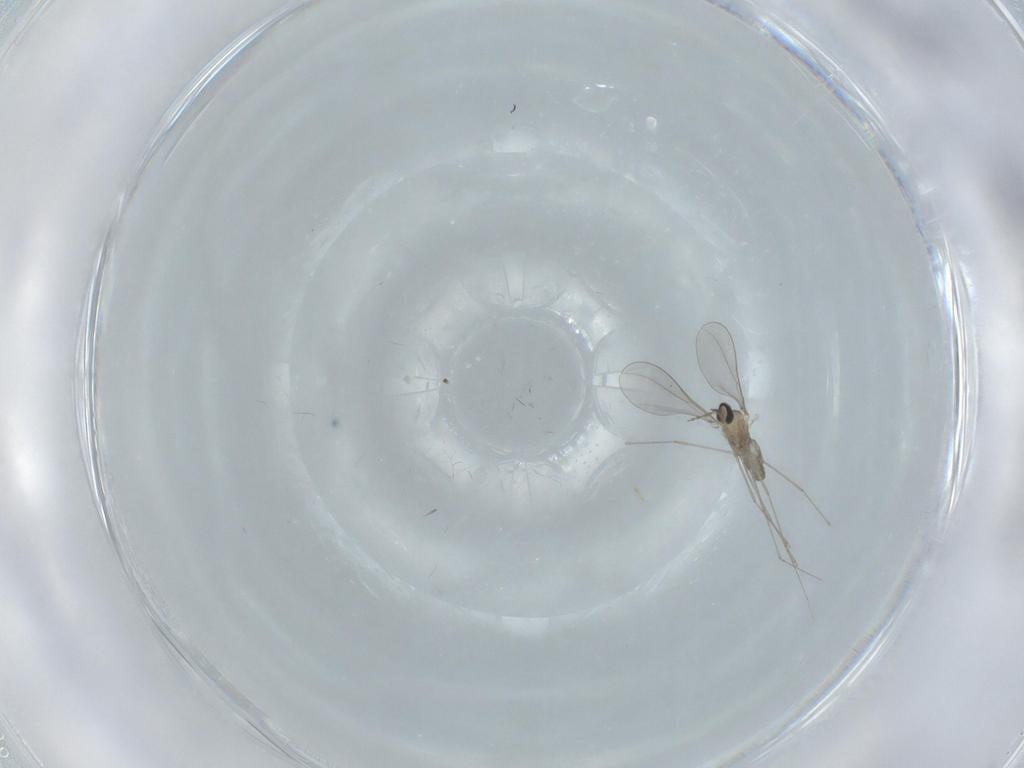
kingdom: Animalia
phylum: Arthropoda
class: Insecta
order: Diptera
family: Cecidomyiidae
